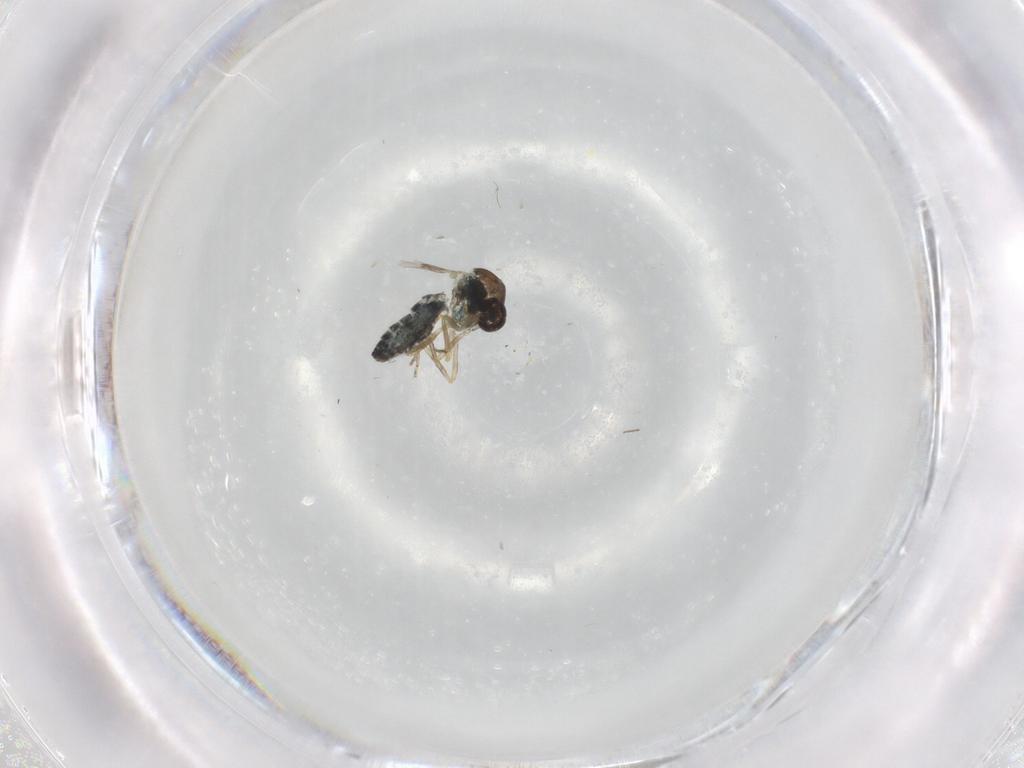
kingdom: Animalia
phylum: Arthropoda
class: Insecta
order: Diptera
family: Ceratopogonidae
